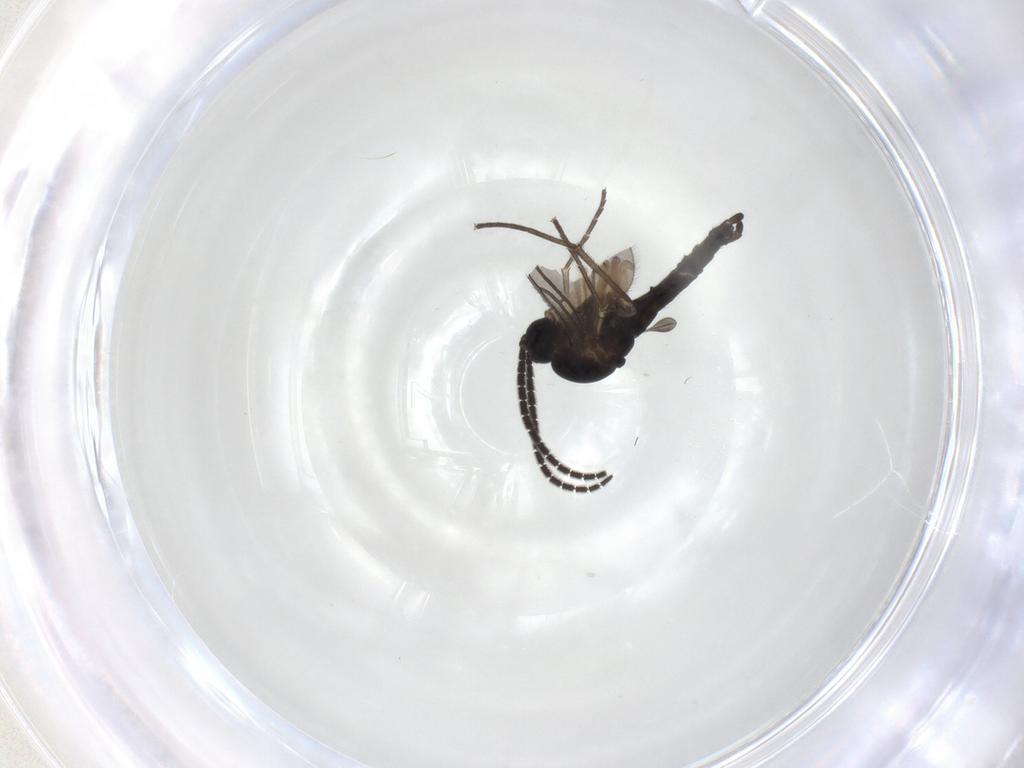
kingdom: Animalia
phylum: Arthropoda
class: Insecta
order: Diptera
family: Sciaridae
